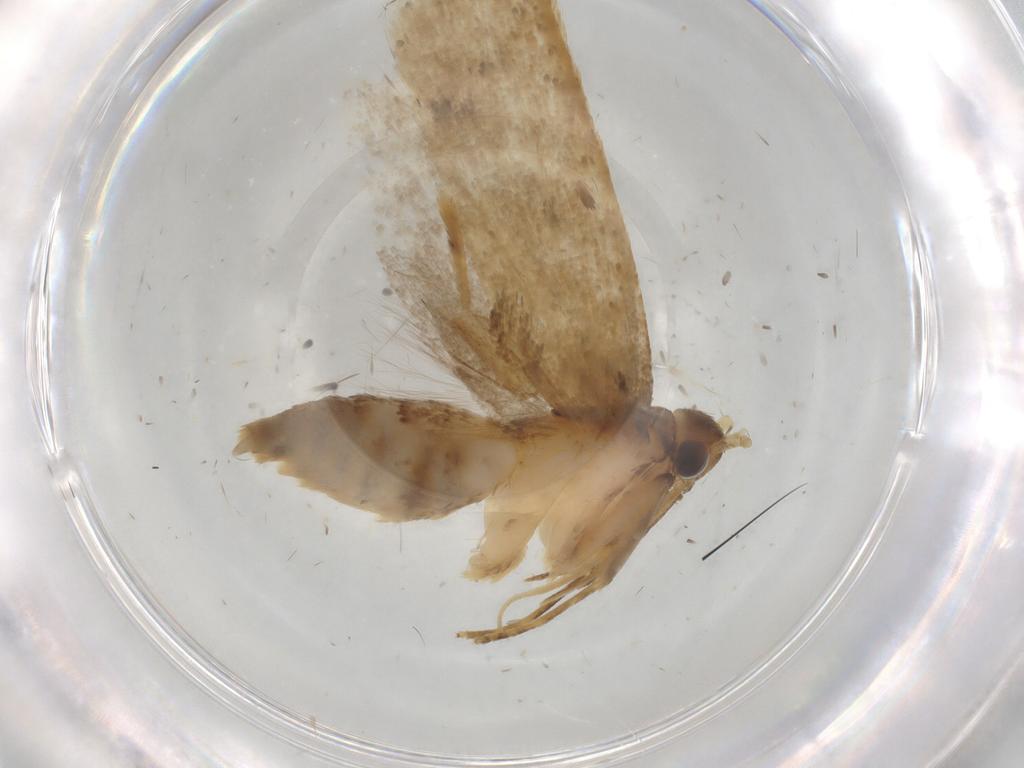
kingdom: Animalia
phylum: Arthropoda
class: Insecta
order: Lepidoptera
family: Lecithoceridae
